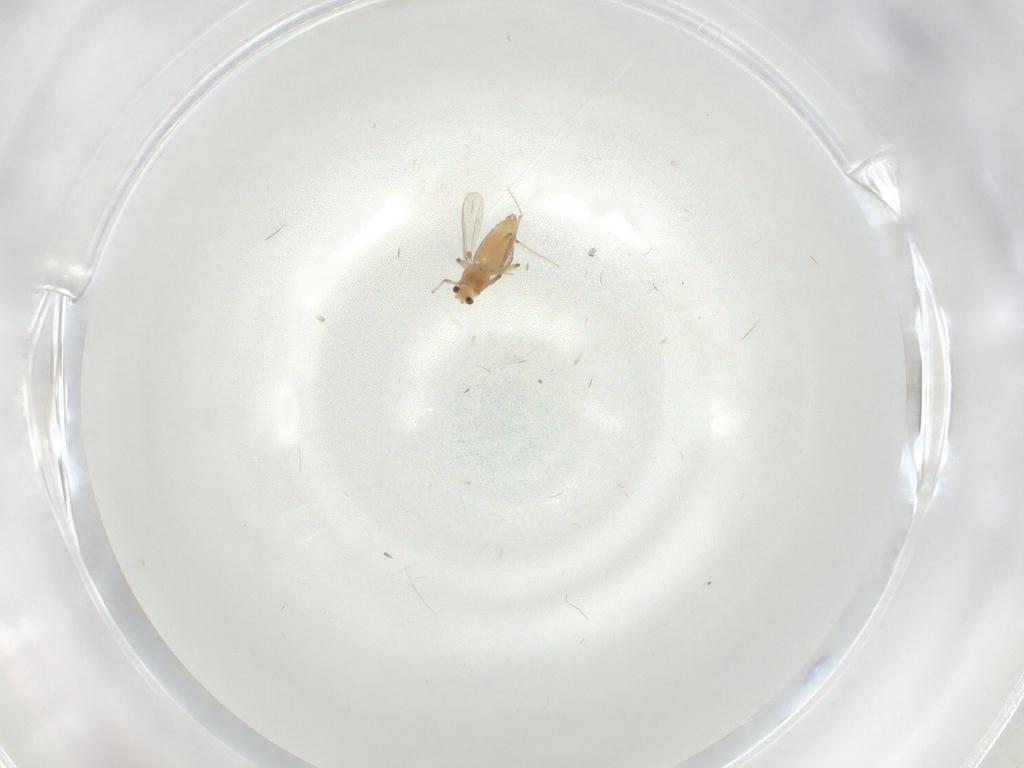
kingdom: Animalia
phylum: Arthropoda
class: Insecta
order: Diptera
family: Chironomidae
